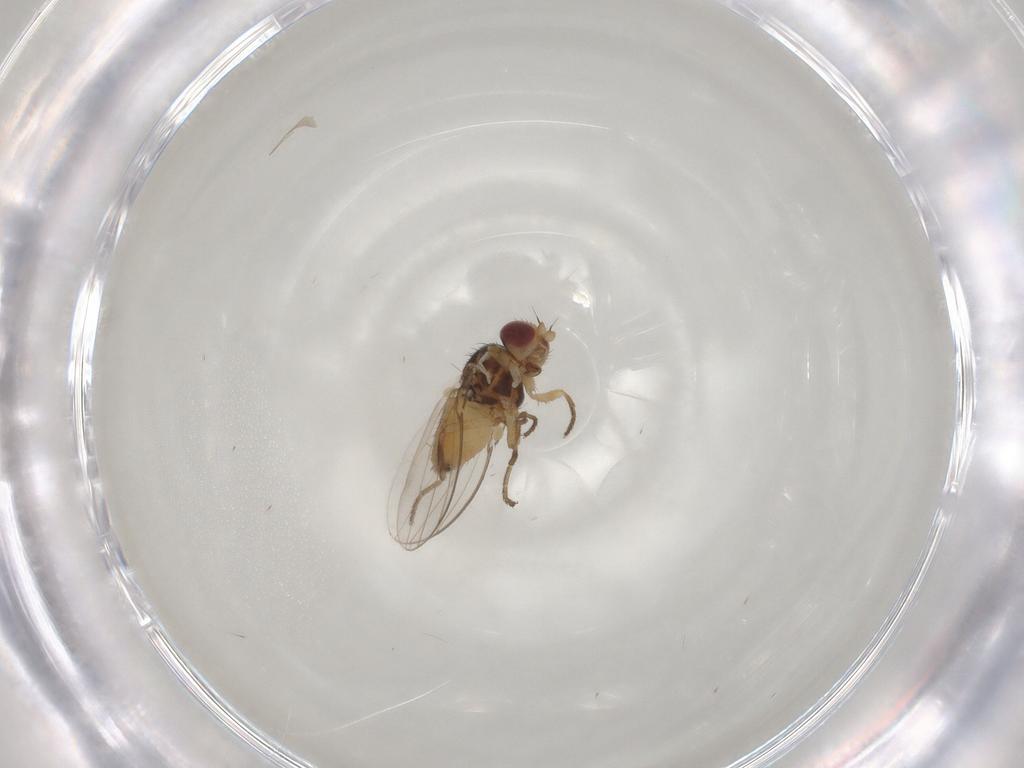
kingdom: Animalia
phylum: Arthropoda
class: Insecta
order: Diptera
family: Chloropidae
